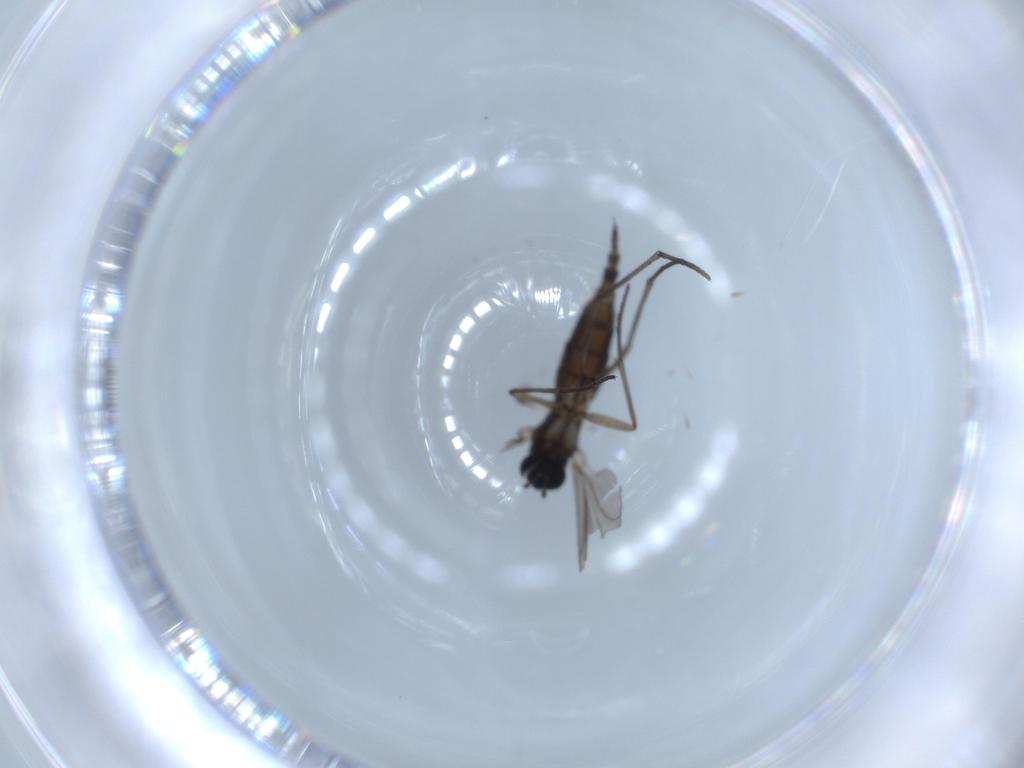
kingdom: Animalia
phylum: Arthropoda
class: Insecta
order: Diptera
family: Sciaridae
